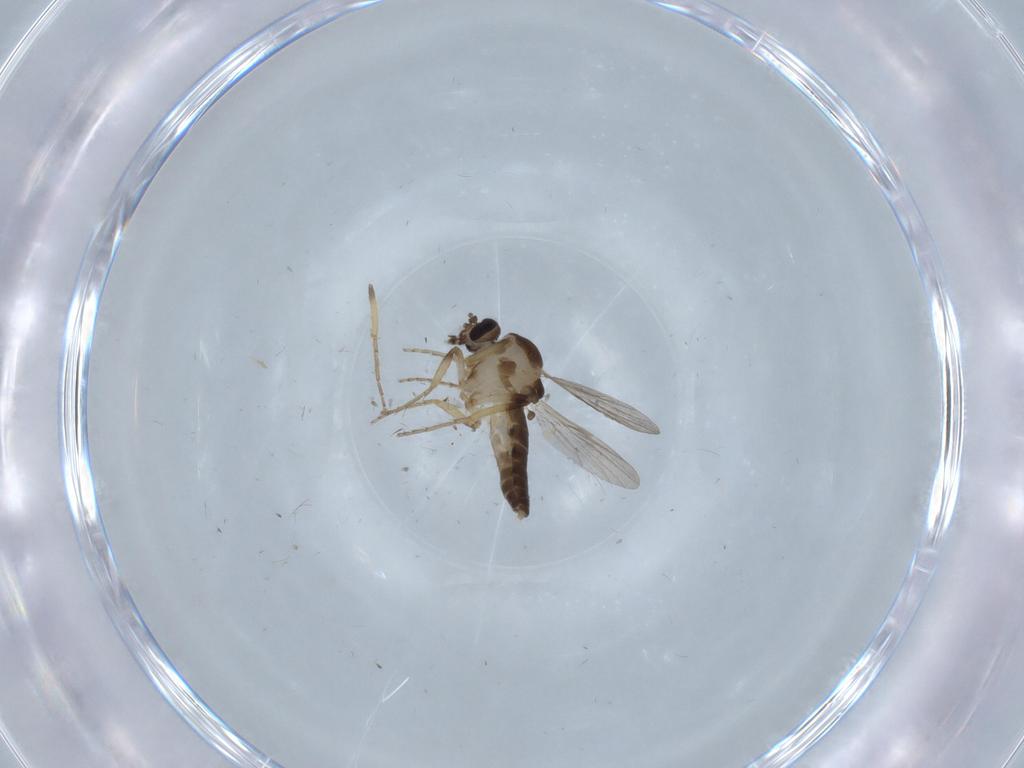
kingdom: Animalia
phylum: Arthropoda
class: Insecta
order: Diptera
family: Ceratopogonidae
